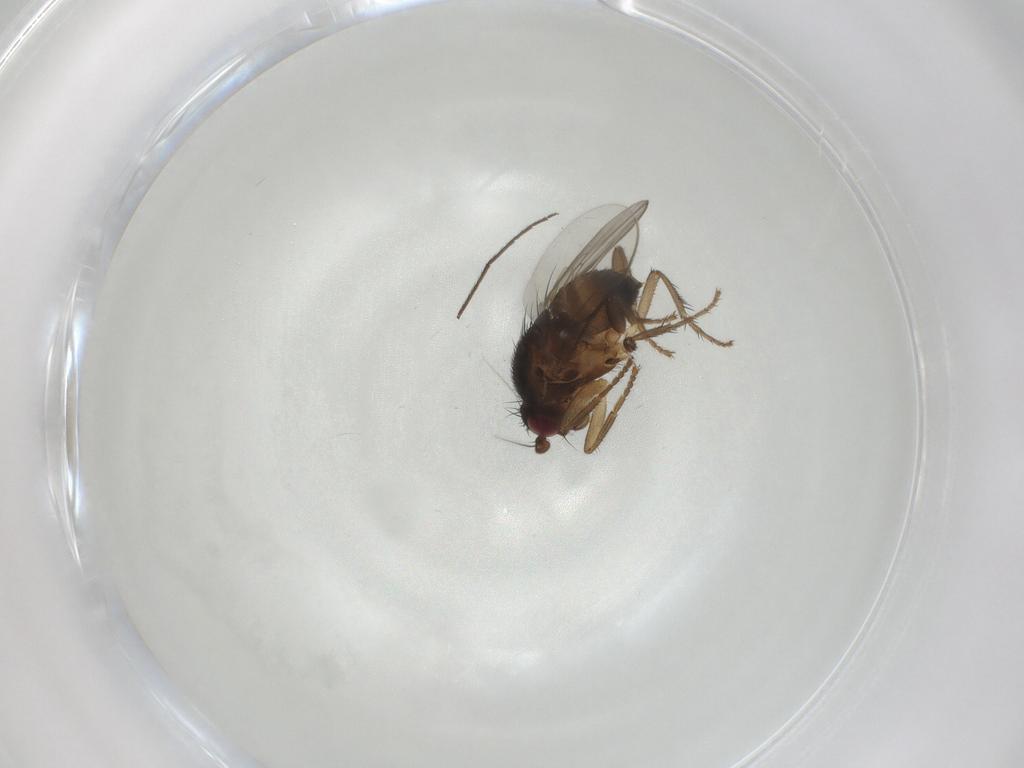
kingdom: Animalia
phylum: Arthropoda
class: Insecta
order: Diptera
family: Sphaeroceridae
